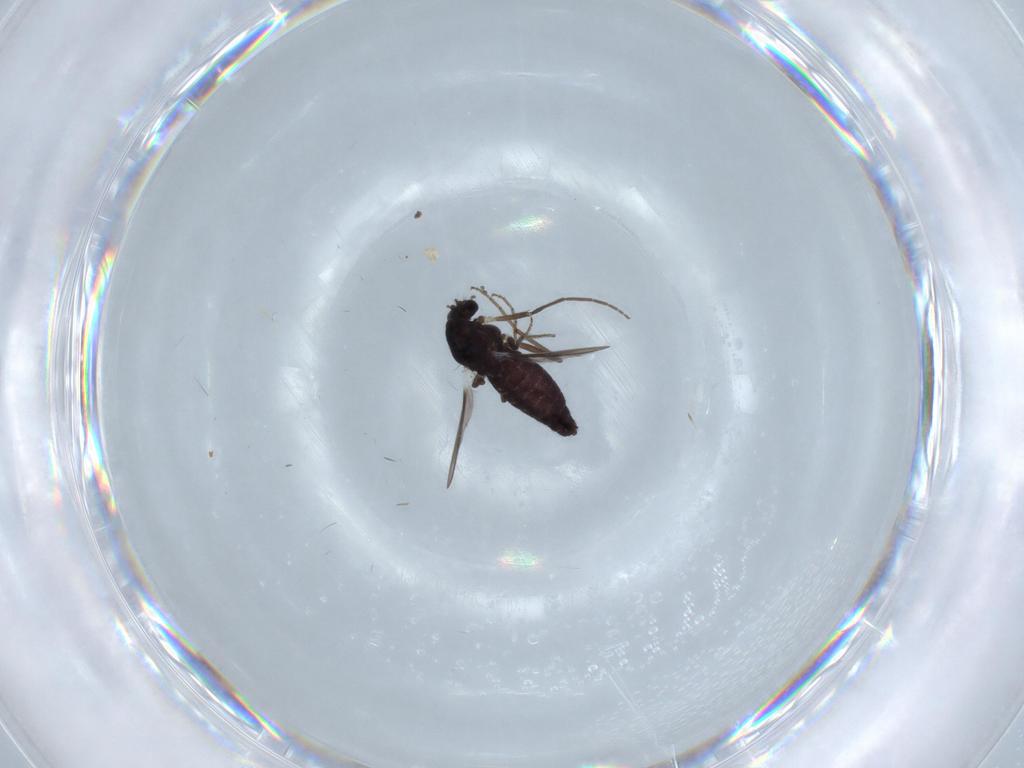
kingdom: Animalia
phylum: Arthropoda
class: Insecta
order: Diptera
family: Chironomidae
